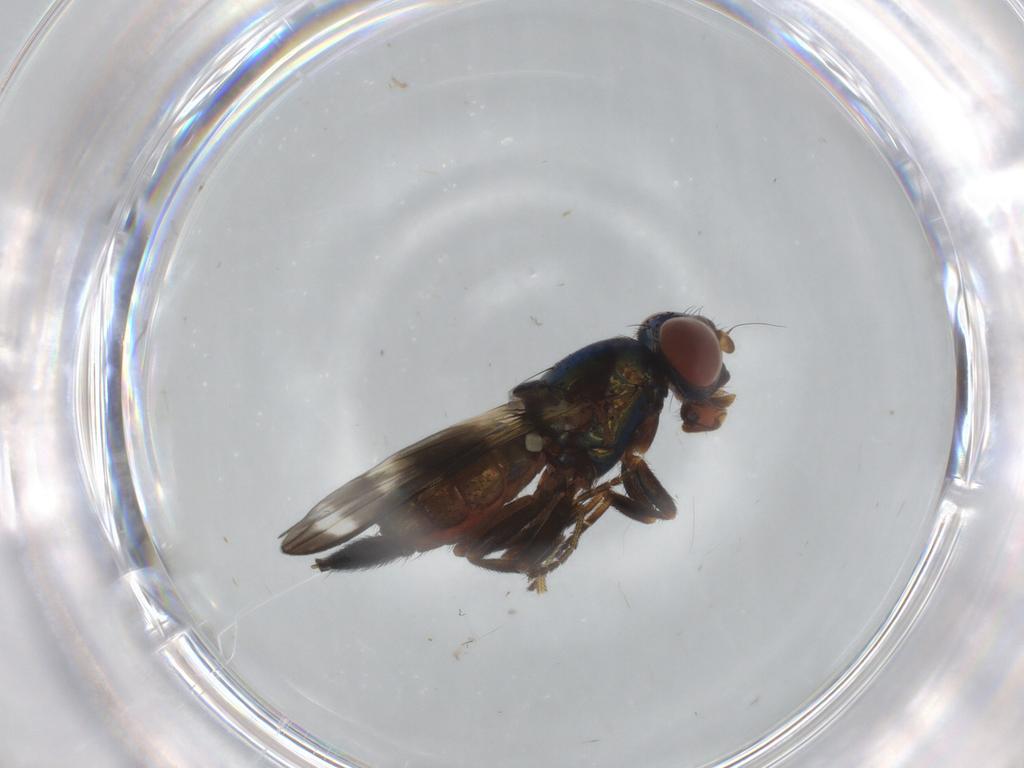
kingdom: Animalia
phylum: Arthropoda
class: Insecta
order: Diptera
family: Ulidiidae
